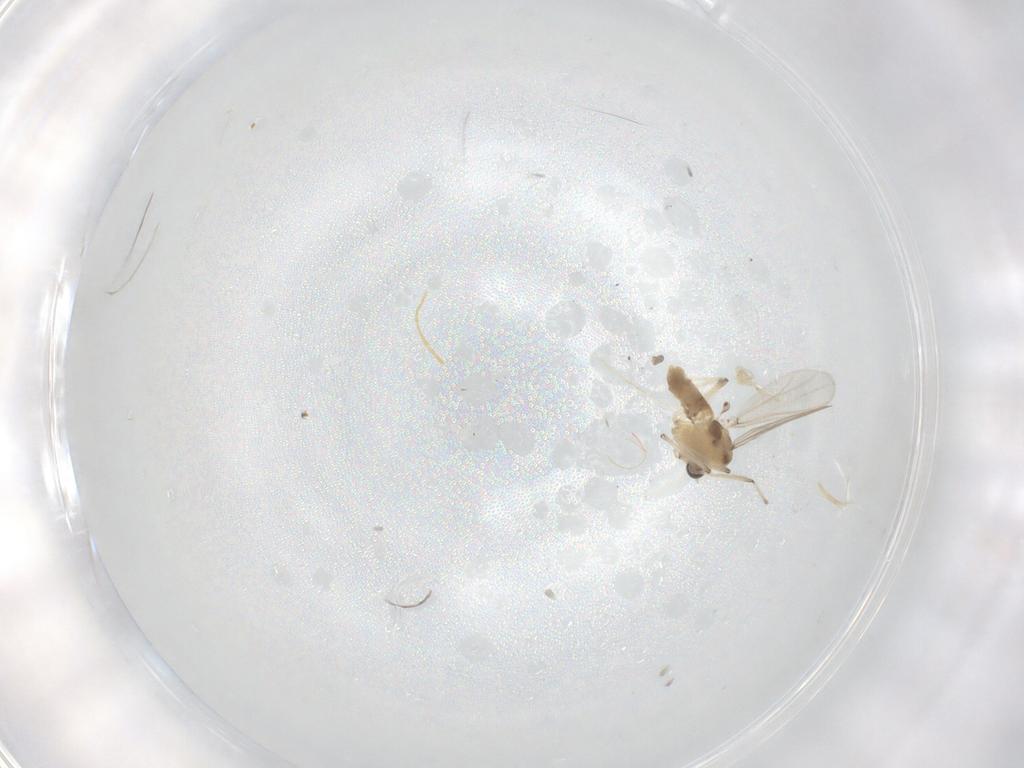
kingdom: Animalia
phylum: Arthropoda
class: Insecta
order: Diptera
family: Chironomidae
